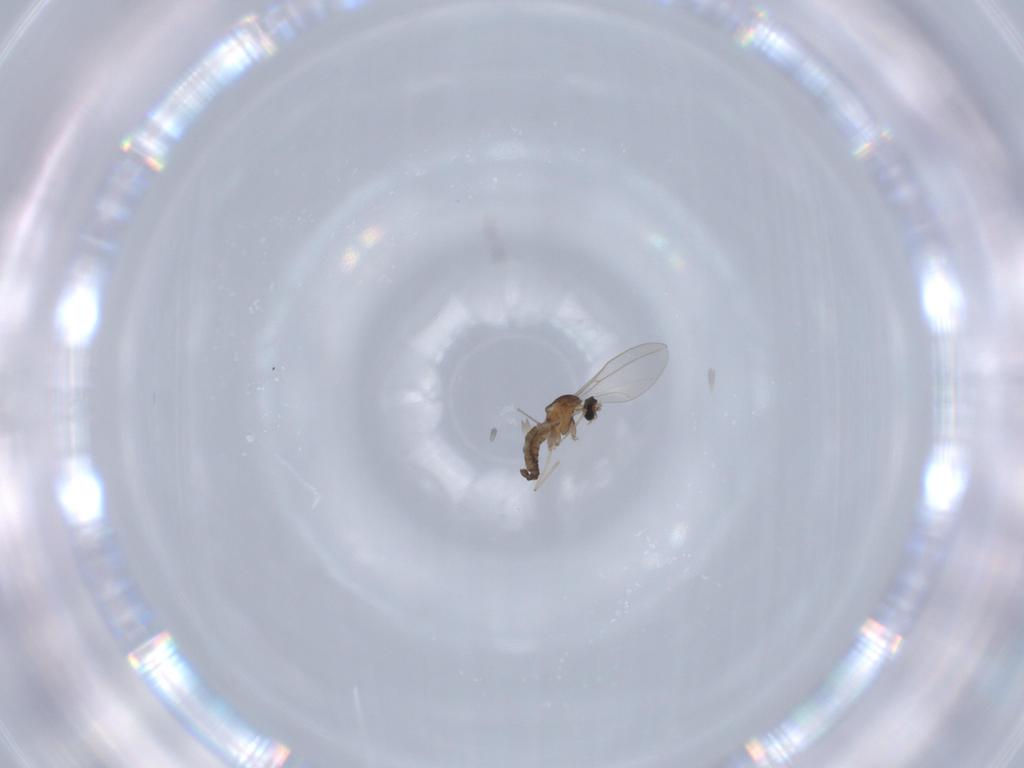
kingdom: Animalia
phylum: Arthropoda
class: Insecta
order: Diptera
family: Cecidomyiidae
